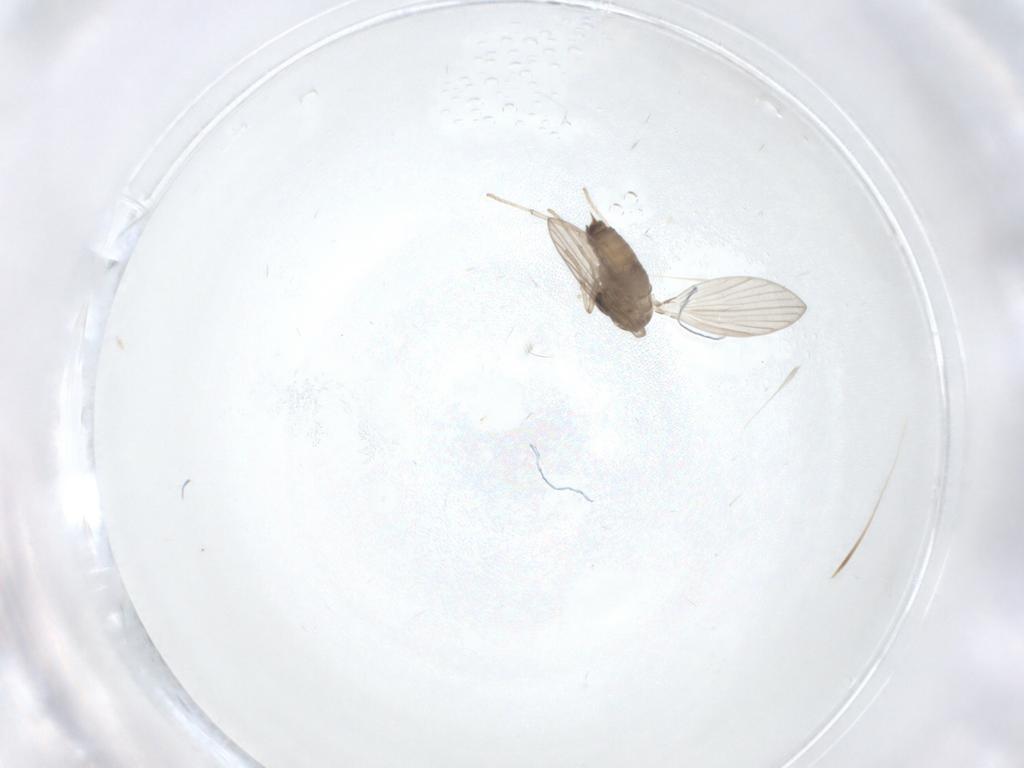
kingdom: Animalia
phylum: Arthropoda
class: Insecta
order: Diptera
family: Psychodidae
